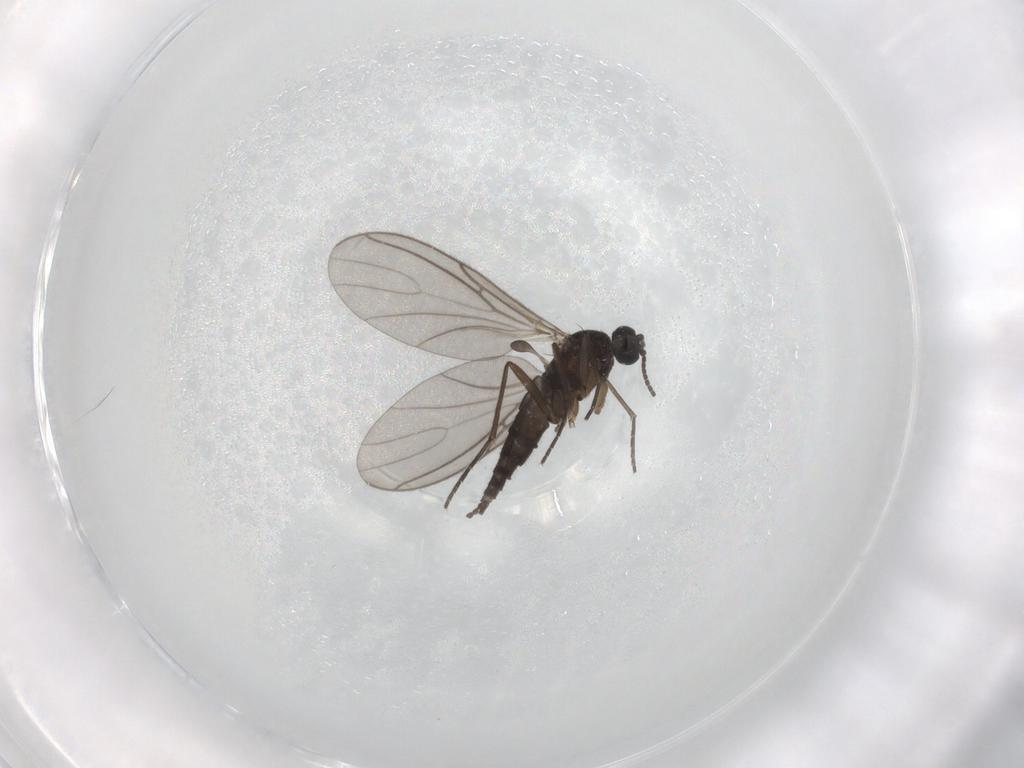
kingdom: Animalia
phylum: Arthropoda
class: Insecta
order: Diptera
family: Sciaridae
